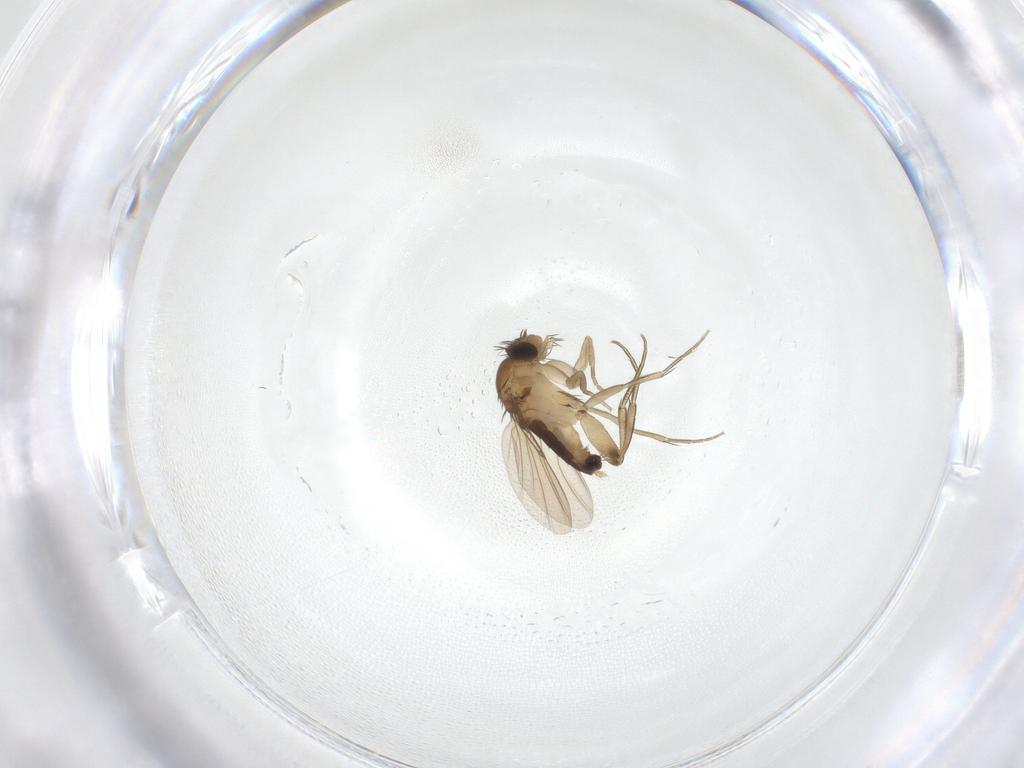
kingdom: Animalia
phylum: Arthropoda
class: Insecta
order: Diptera
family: Phoridae
